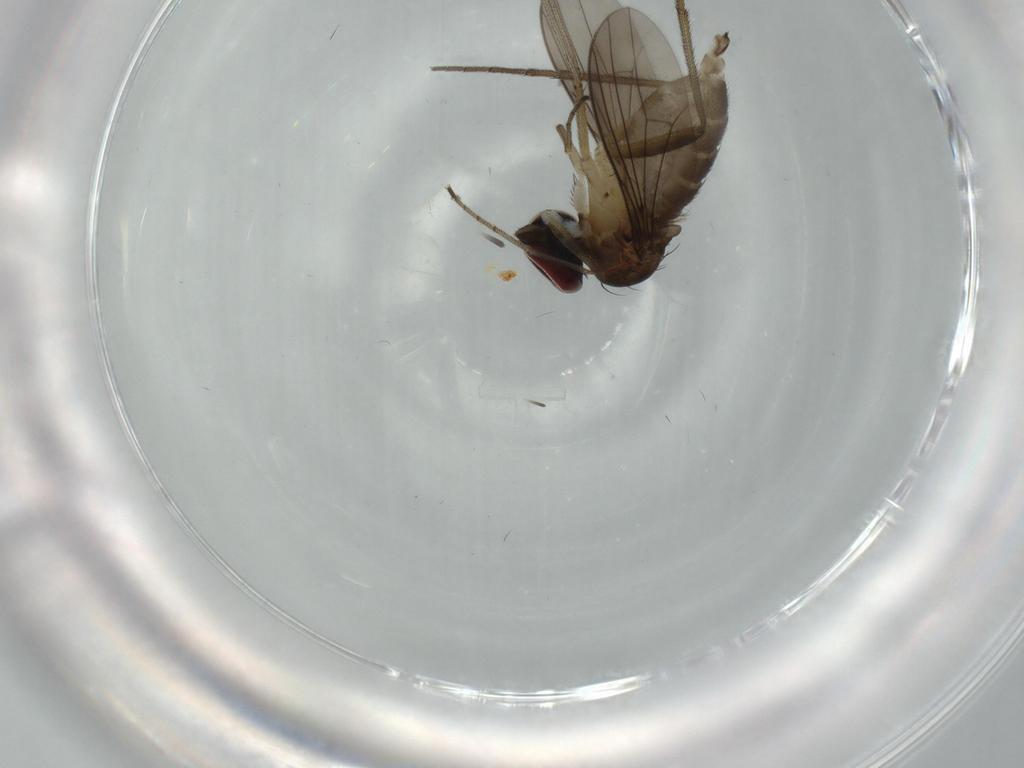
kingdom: Animalia
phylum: Arthropoda
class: Insecta
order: Diptera
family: Dolichopodidae
